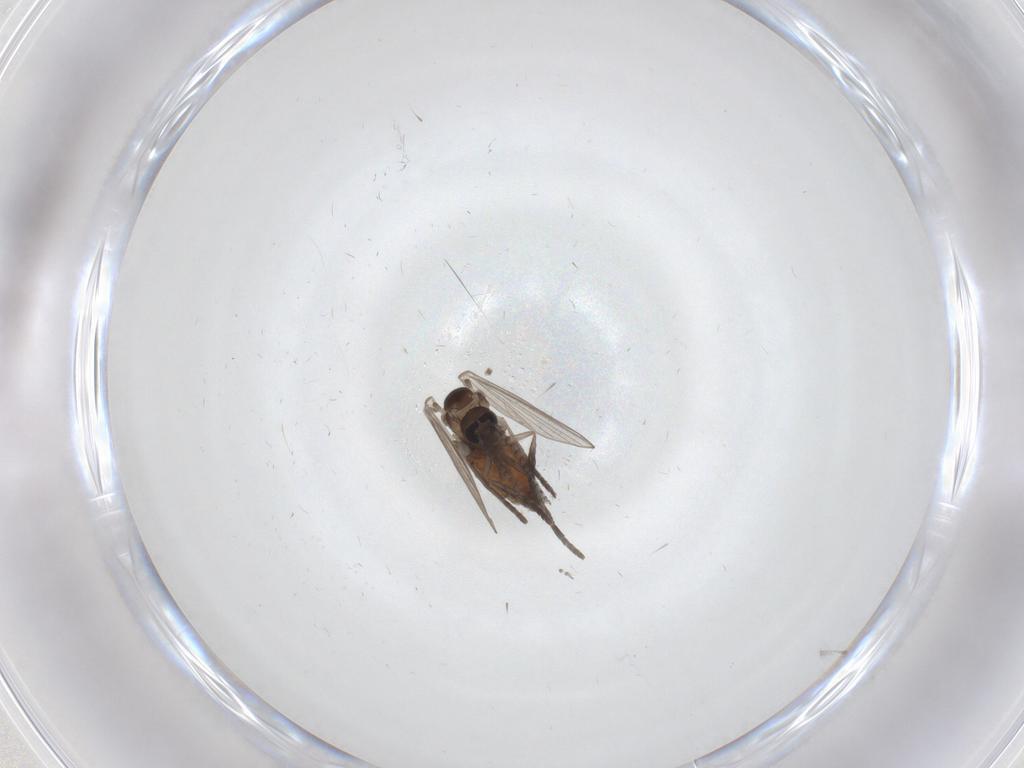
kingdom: Animalia
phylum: Arthropoda
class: Insecta
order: Diptera
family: Psychodidae
